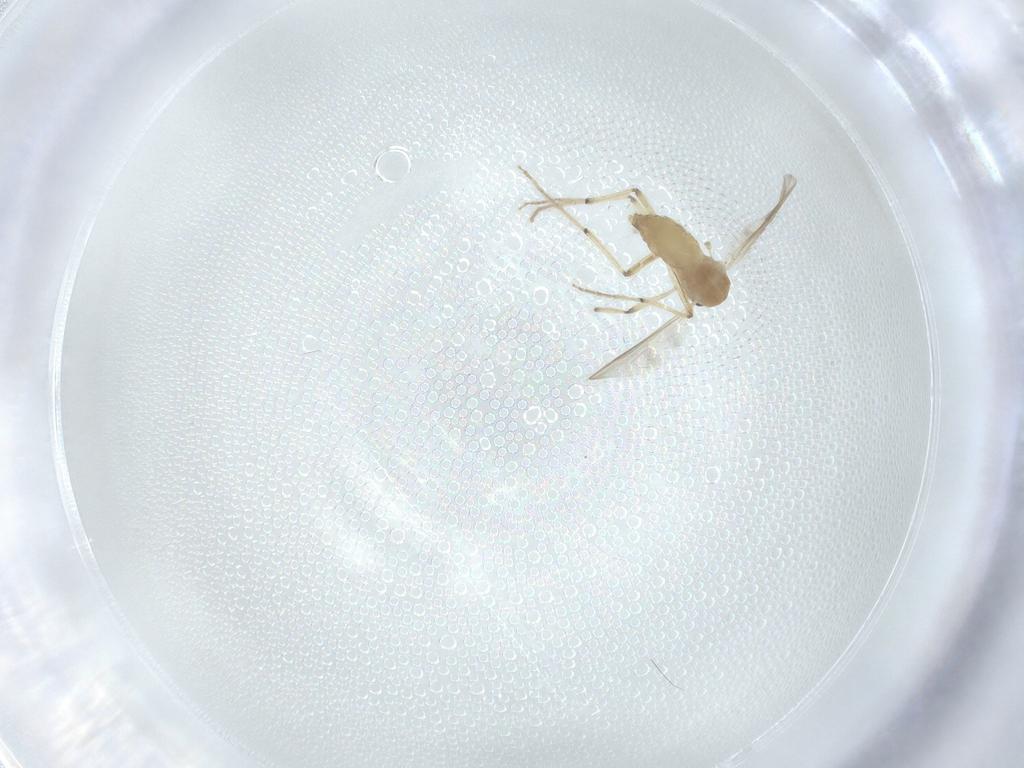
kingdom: Animalia
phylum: Arthropoda
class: Insecta
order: Diptera
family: Chironomidae
